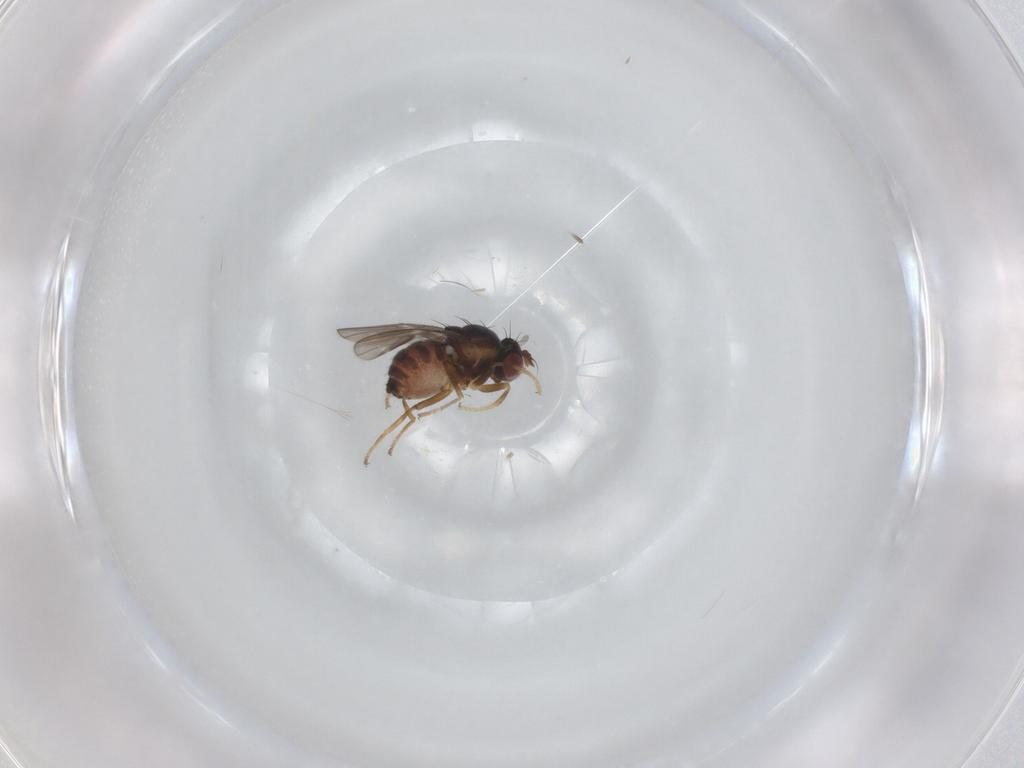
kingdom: Animalia
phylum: Arthropoda
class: Insecta
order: Diptera
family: Ephydridae
